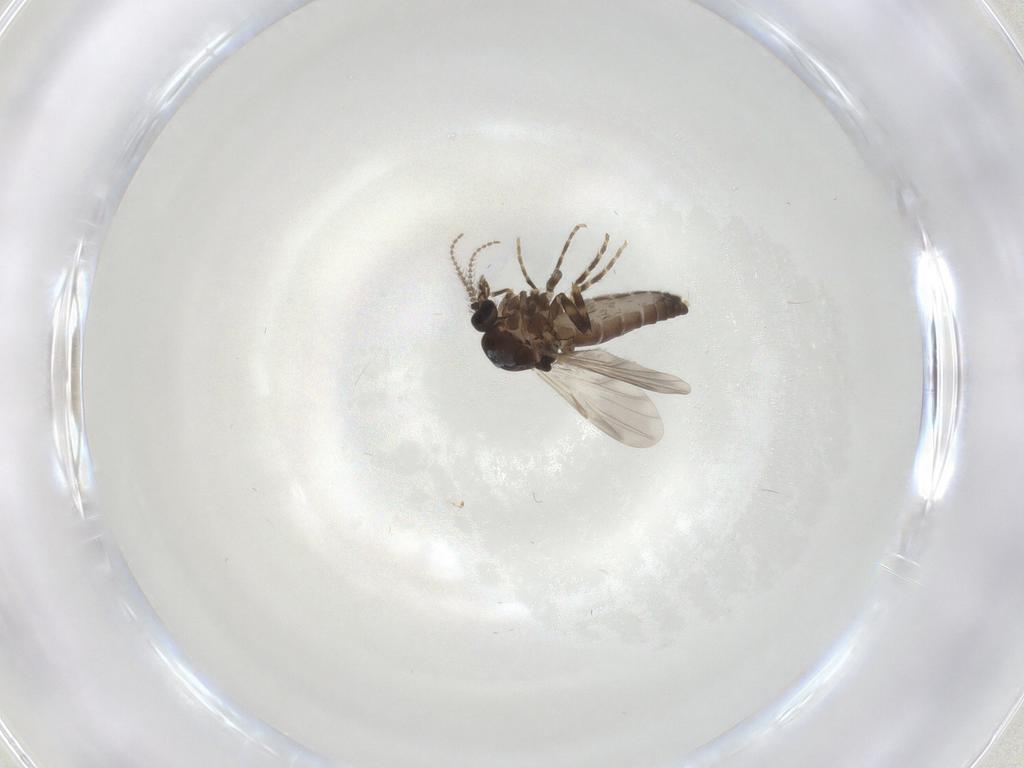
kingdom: Animalia
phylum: Arthropoda
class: Insecta
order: Diptera
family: Ceratopogonidae
